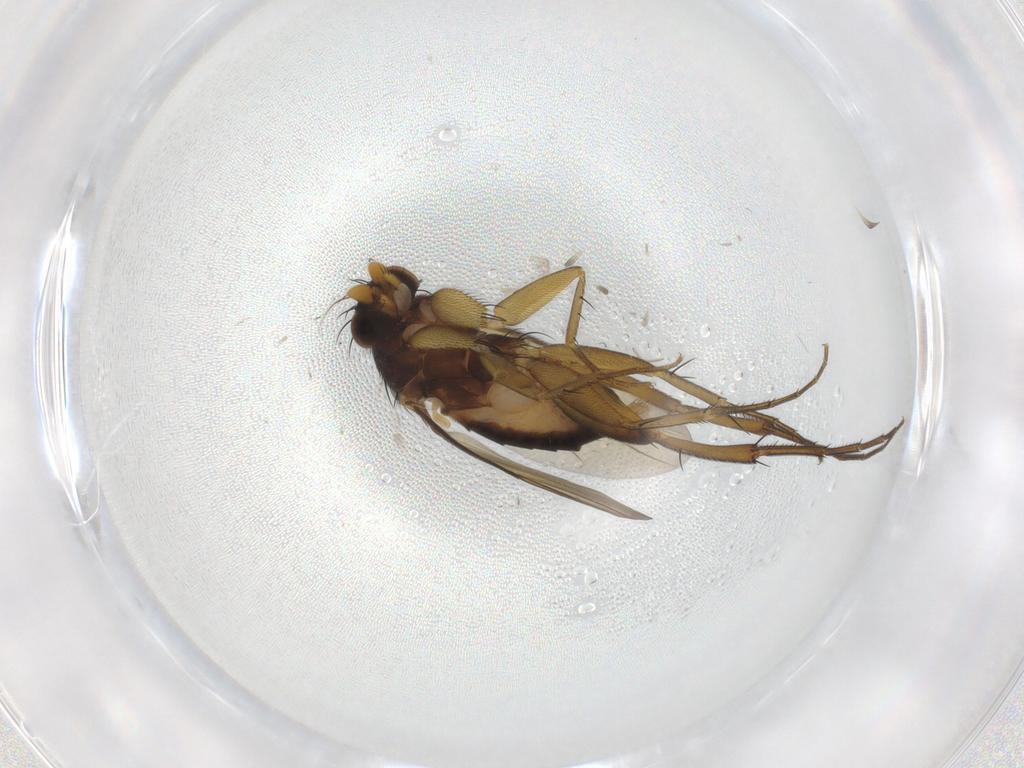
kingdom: Animalia
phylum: Arthropoda
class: Insecta
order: Diptera
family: Phoridae
